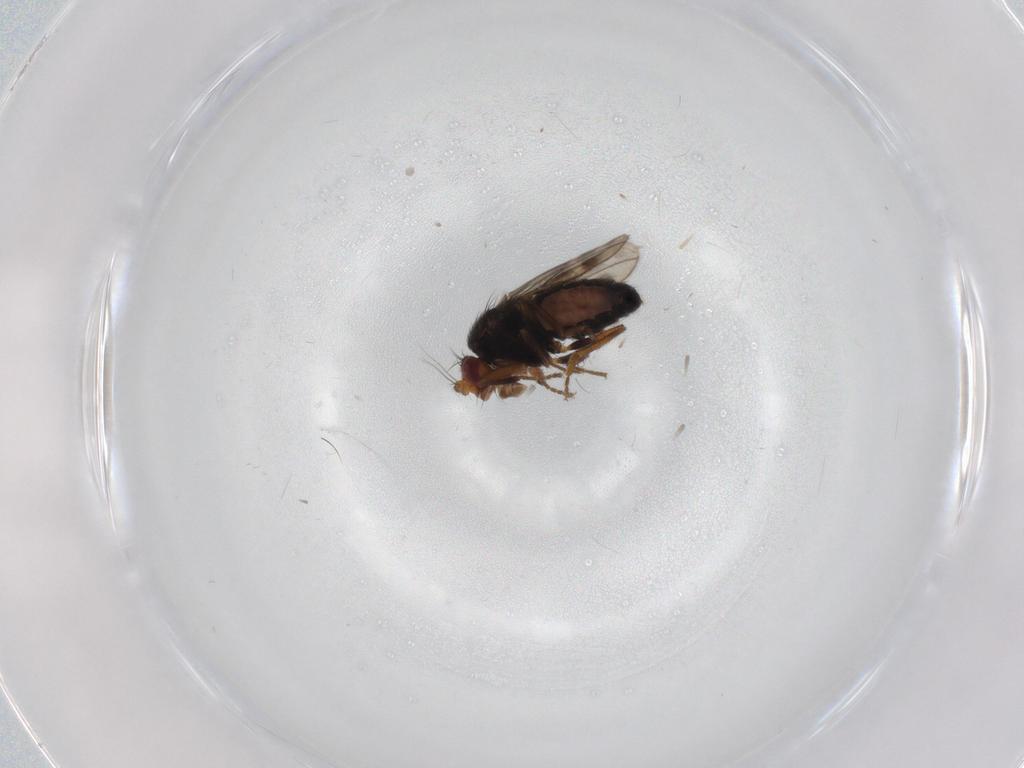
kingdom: Animalia
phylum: Arthropoda
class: Insecta
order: Diptera
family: Sphaeroceridae
